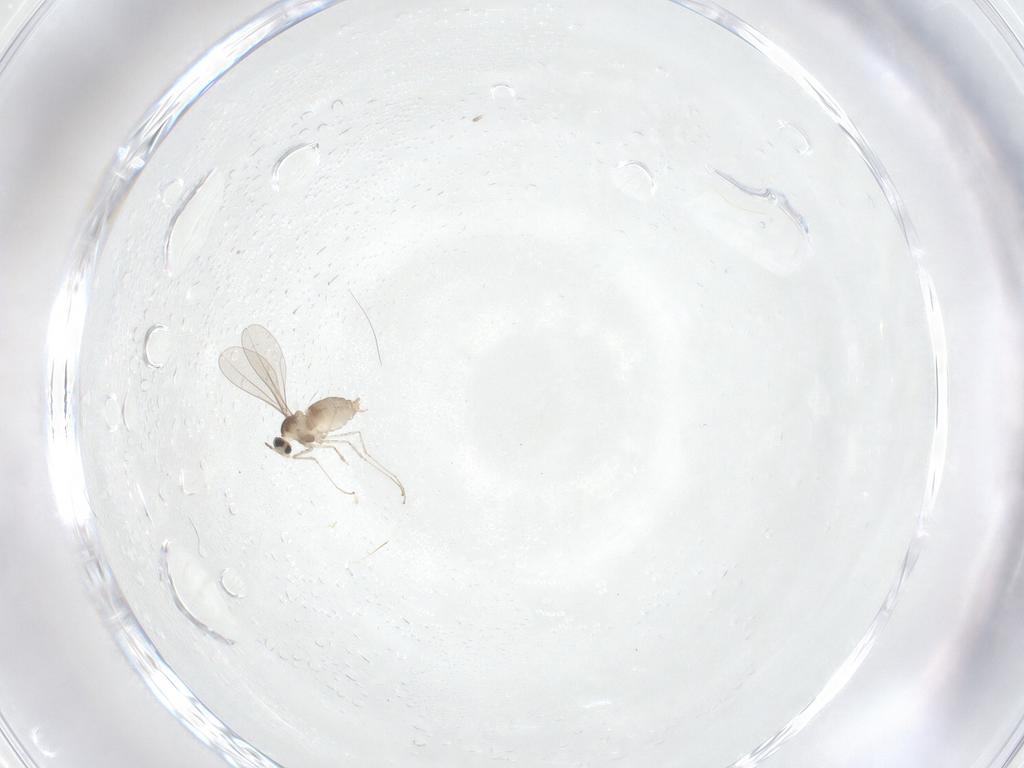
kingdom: Animalia
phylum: Arthropoda
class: Insecta
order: Diptera
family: Cecidomyiidae
